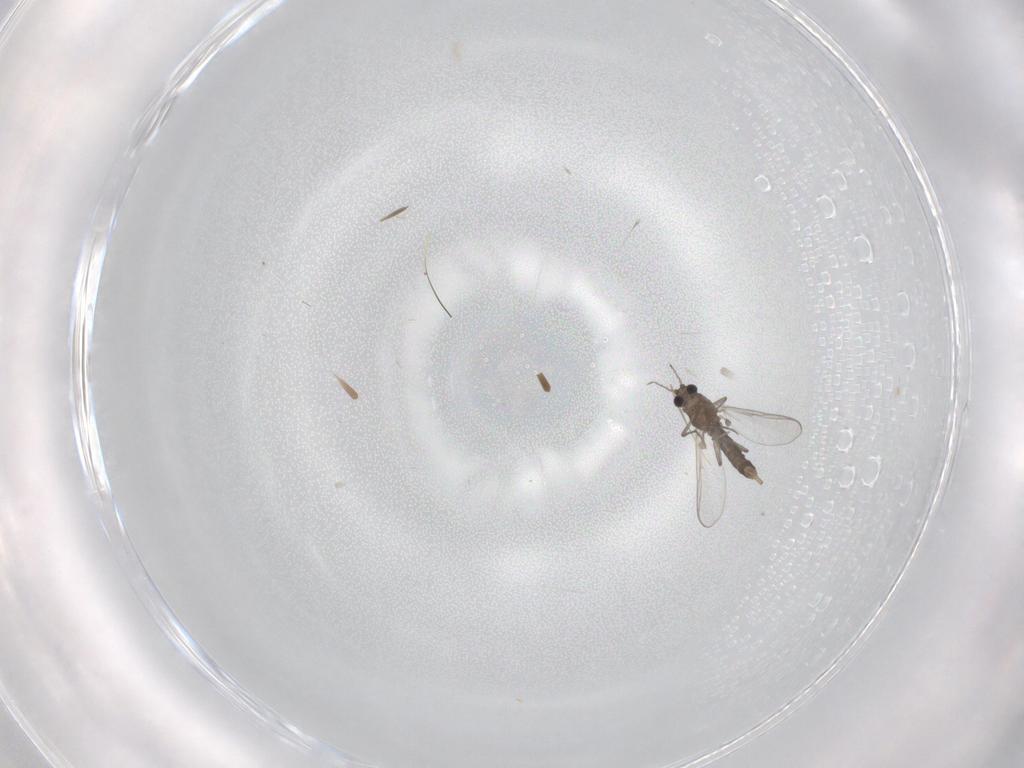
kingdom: Animalia
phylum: Arthropoda
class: Insecta
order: Diptera
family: Chironomidae
